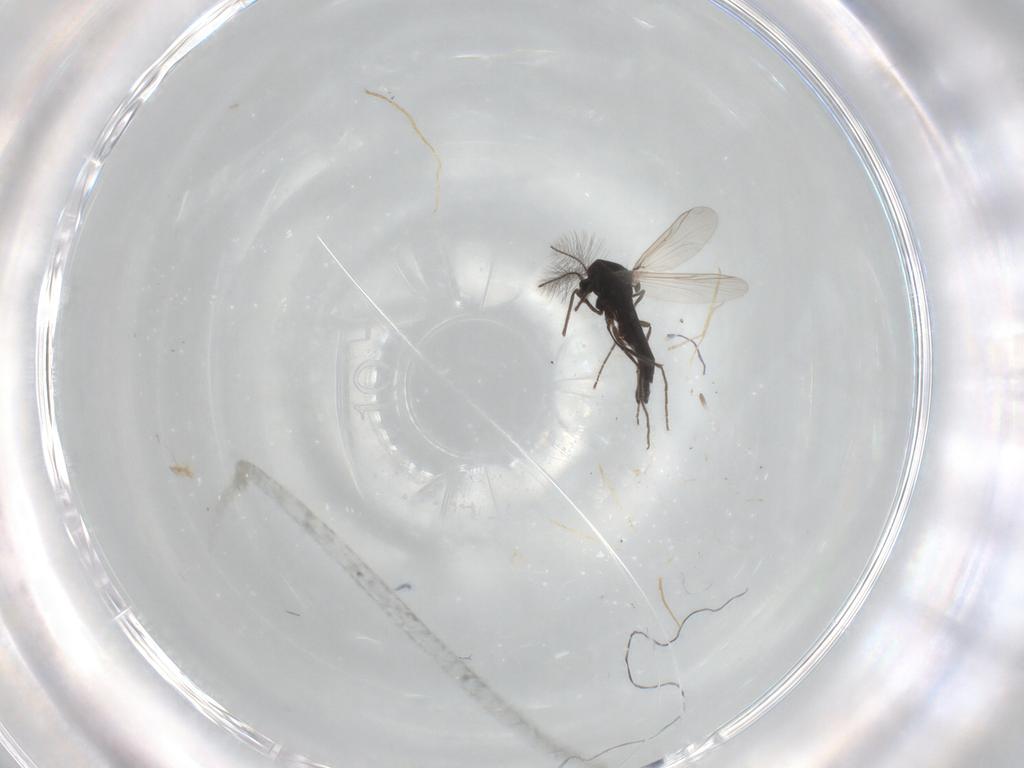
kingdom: Animalia
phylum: Arthropoda
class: Insecta
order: Diptera
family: Chironomidae
